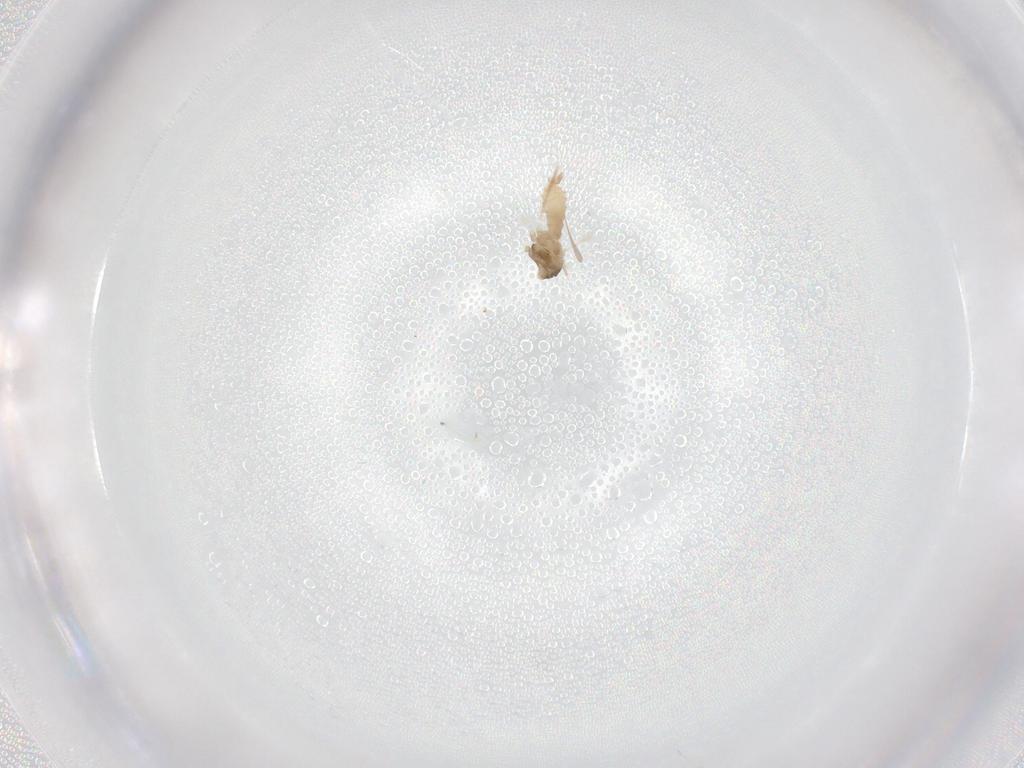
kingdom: Animalia
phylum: Arthropoda
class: Insecta
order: Diptera
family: Cecidomyiidae
